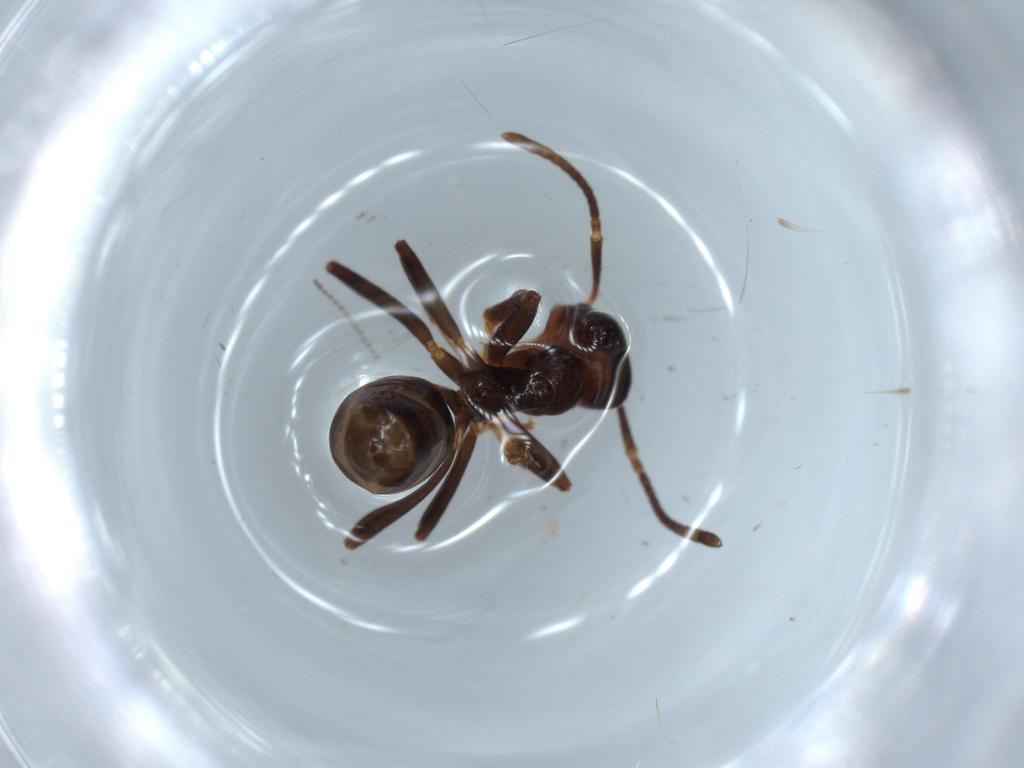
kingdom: Animalia
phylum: Arthropoda
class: Insecta
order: Hymenoptera
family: Formicidae
